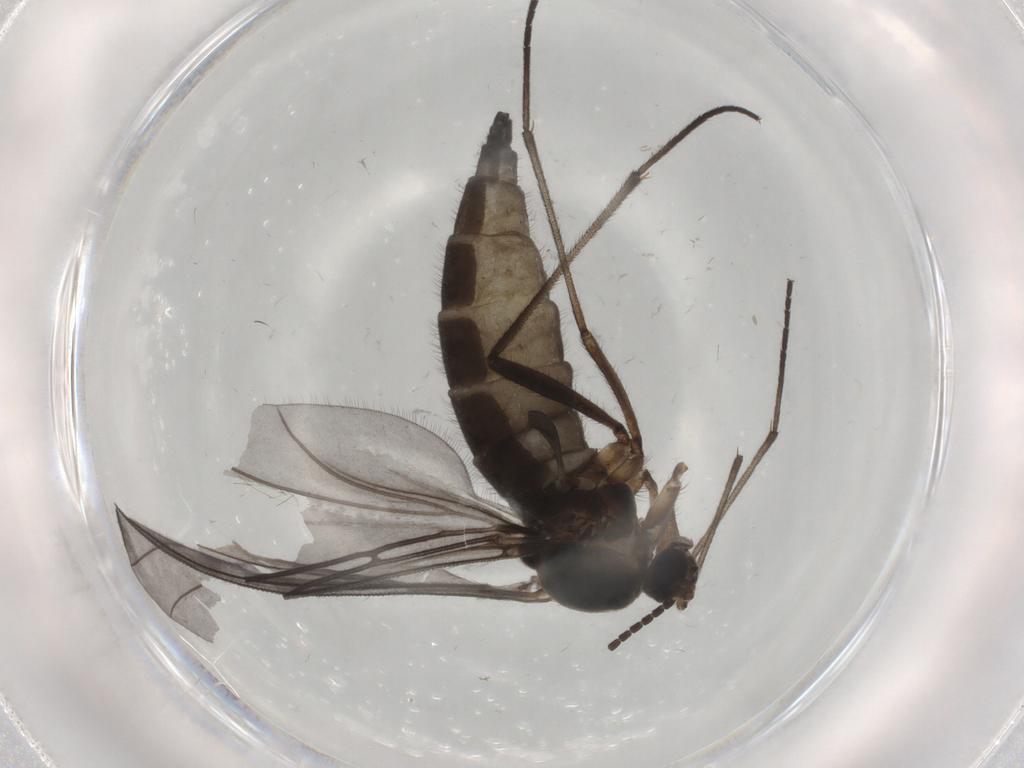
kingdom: Animalia
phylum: Arthropoda
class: Insecta
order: Diptera
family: Sciaridae
